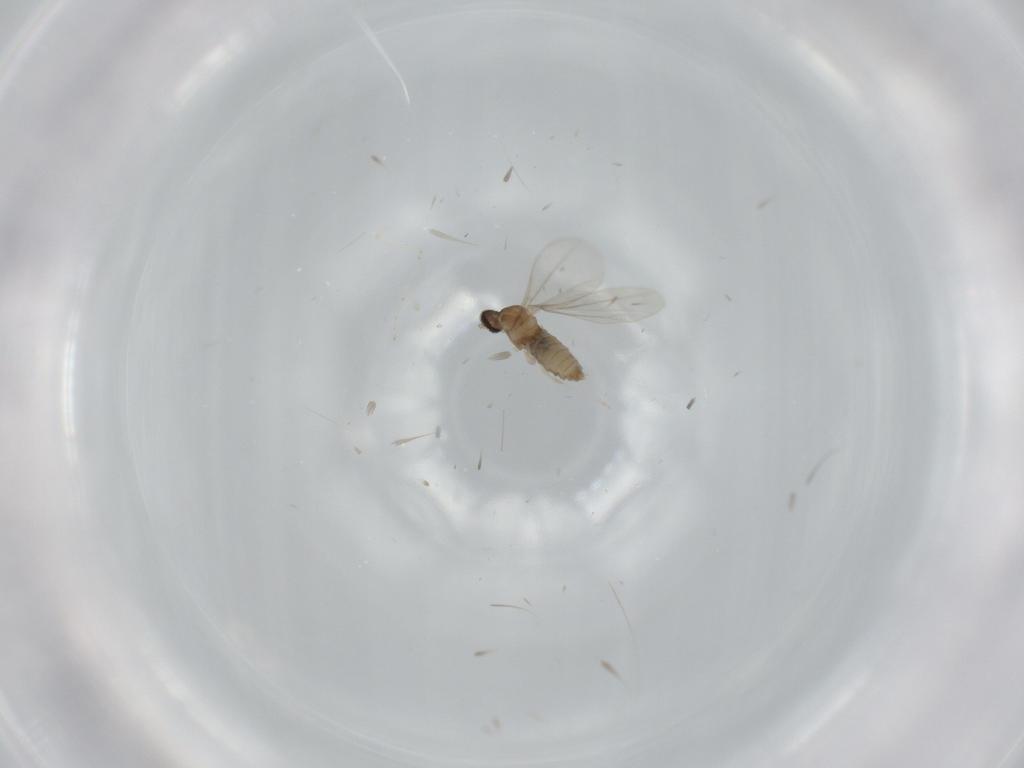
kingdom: Animalia
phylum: Arthropoda
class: Insecta
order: Diptera
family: Cecidomyiidae
